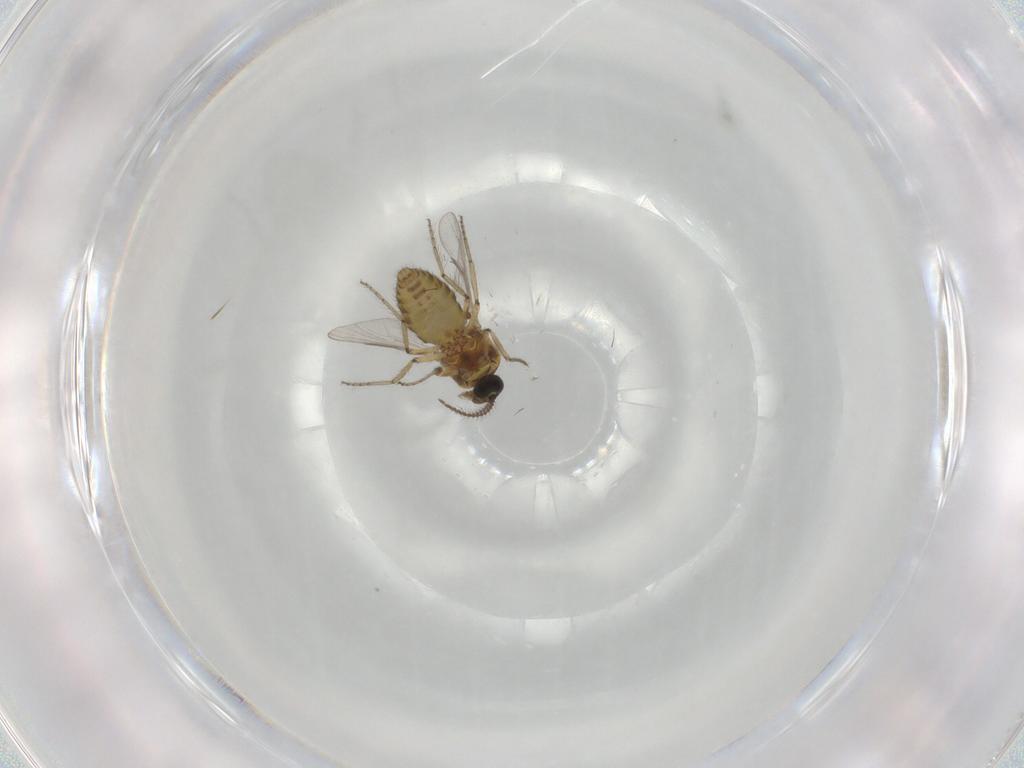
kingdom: Animalia
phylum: Arthropoda
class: Insecta
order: Diptera
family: Ceratopogonidae
